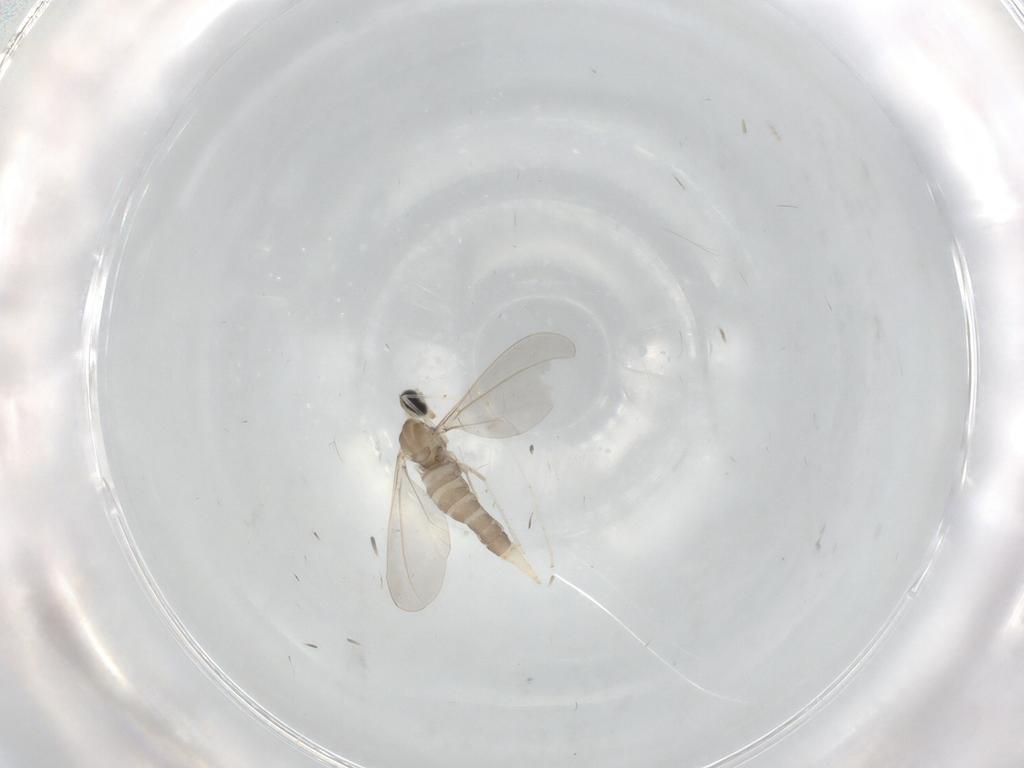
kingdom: Animalia
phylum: Arthropoda
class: Insecta
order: Diptera
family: Cecidomyiidae
